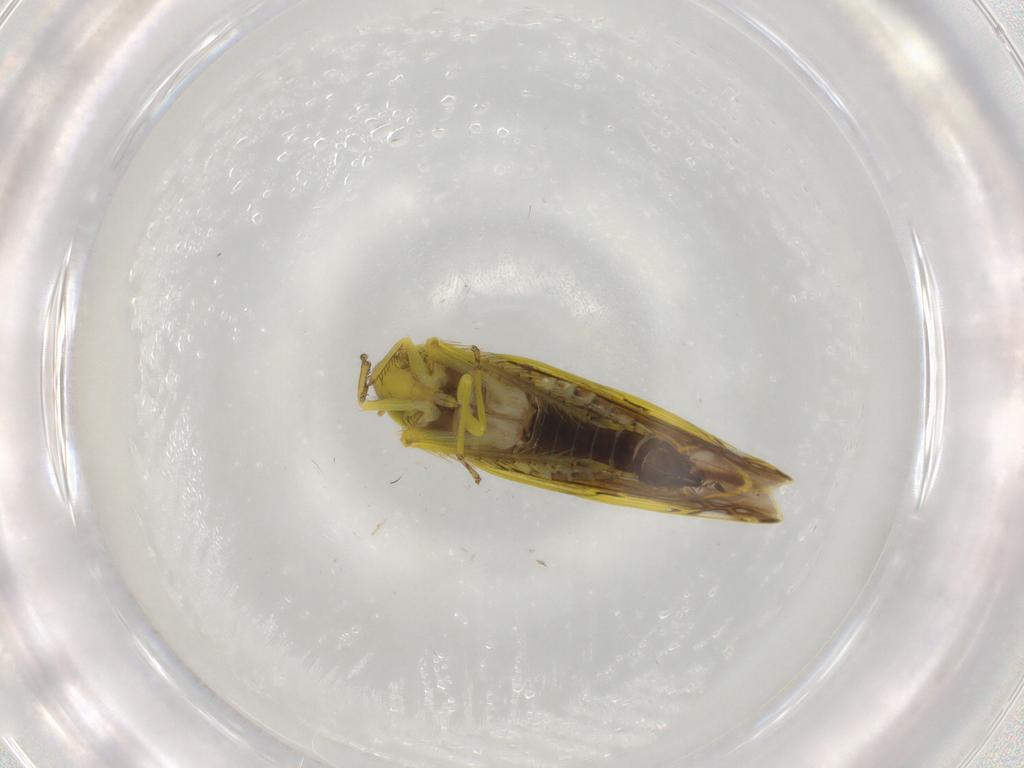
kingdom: Animalia
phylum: Arthropoda
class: Insecta
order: Hemiptera
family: Cicadellidae
